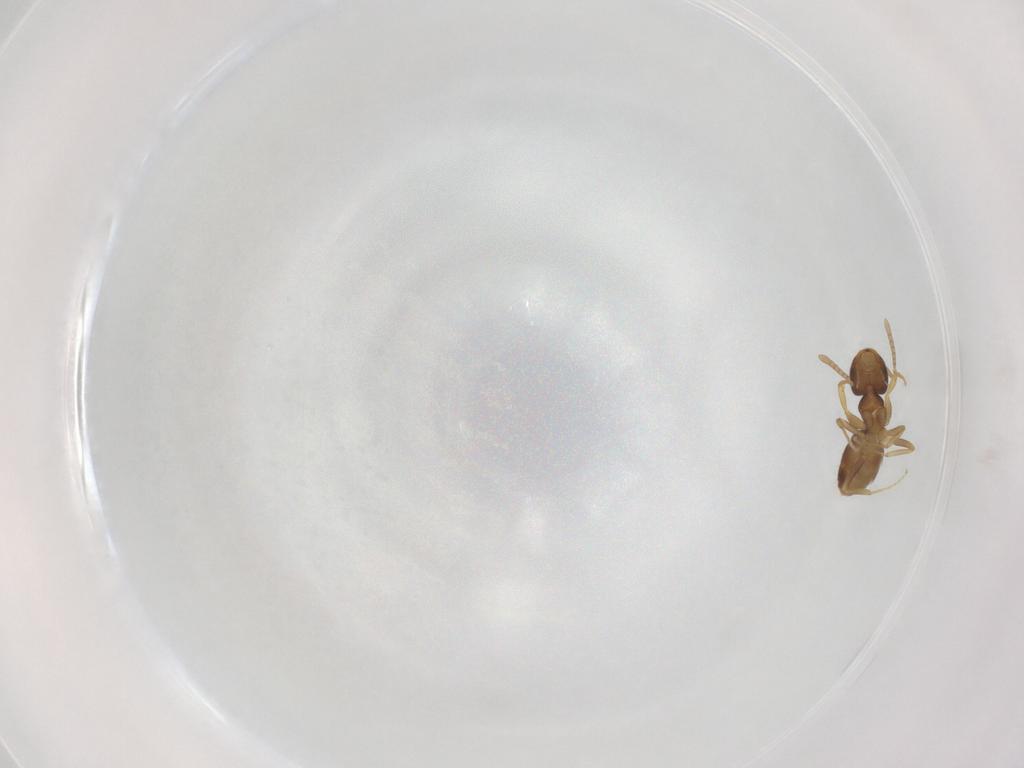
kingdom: Animalia
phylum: Arthropoda
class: Insecta
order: Hymenoptera
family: Formicidae
